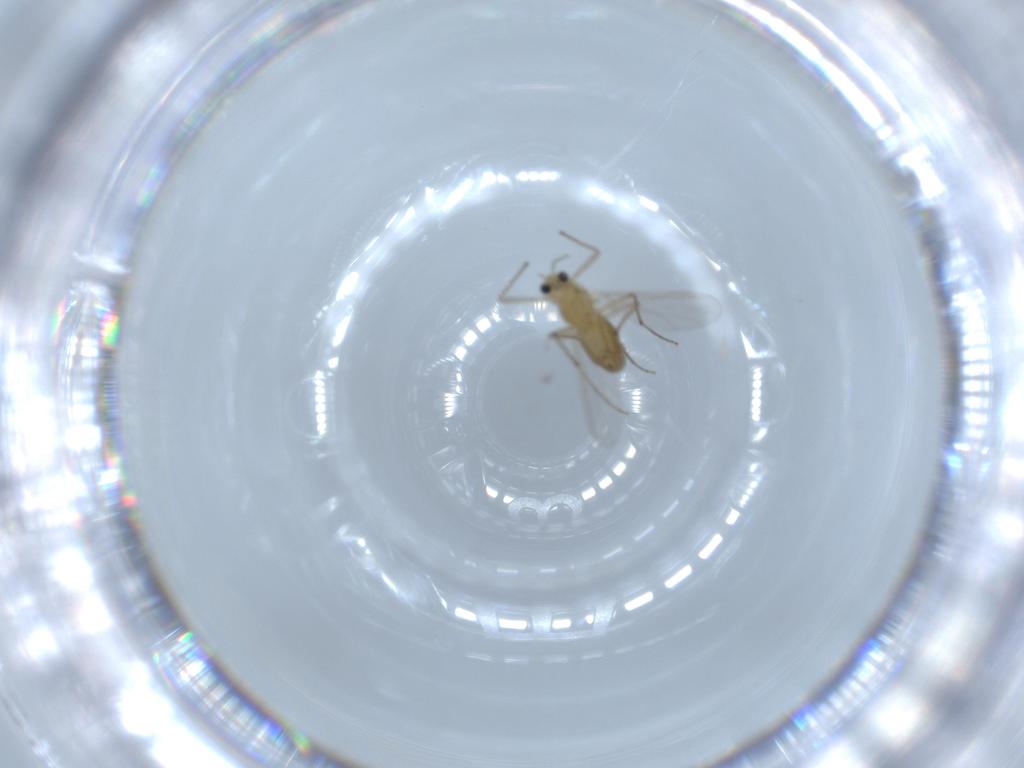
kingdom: Animalia
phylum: Arthropoda
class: Insecta
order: Diptera
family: Chironomidae
